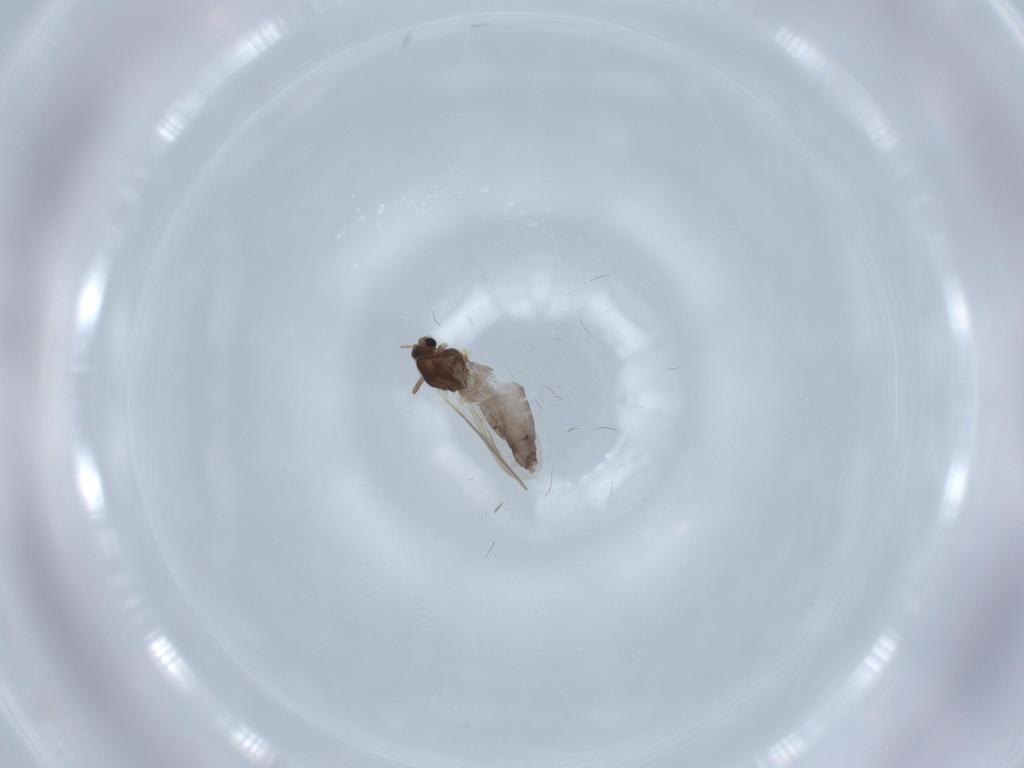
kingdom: Animalia
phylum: Arthropoda
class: Insecta
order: Diptera
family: Chironomidae
